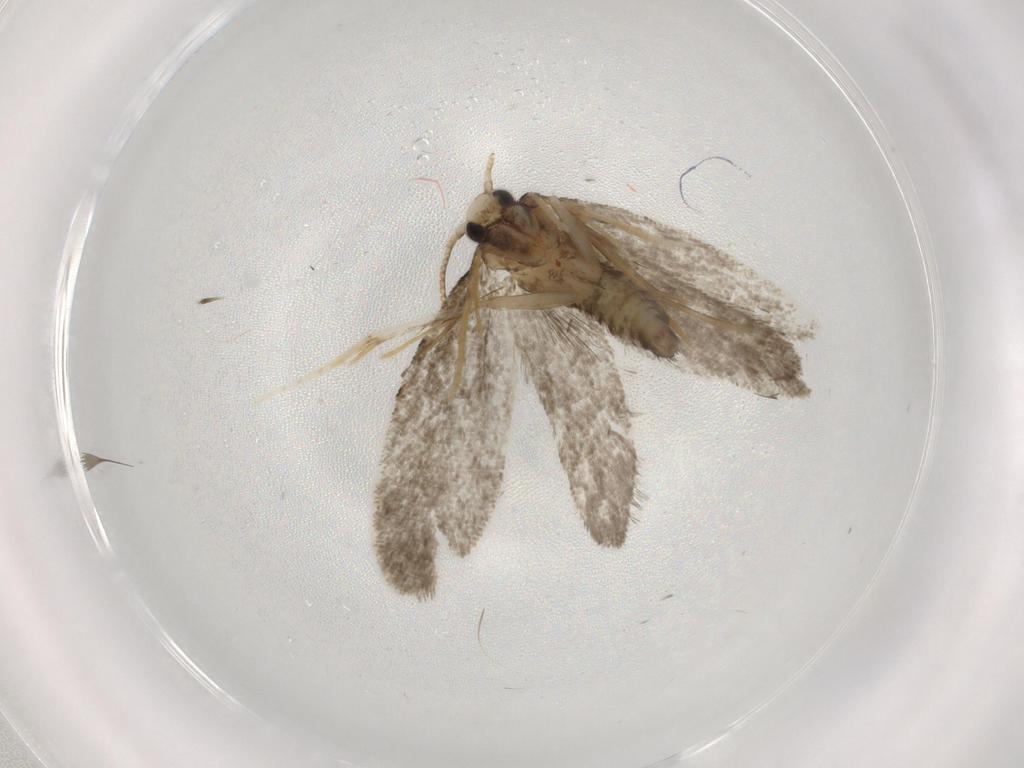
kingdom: Animalia
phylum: Arthropoda
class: Insecta
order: Lepidoptera
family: Psychidae
